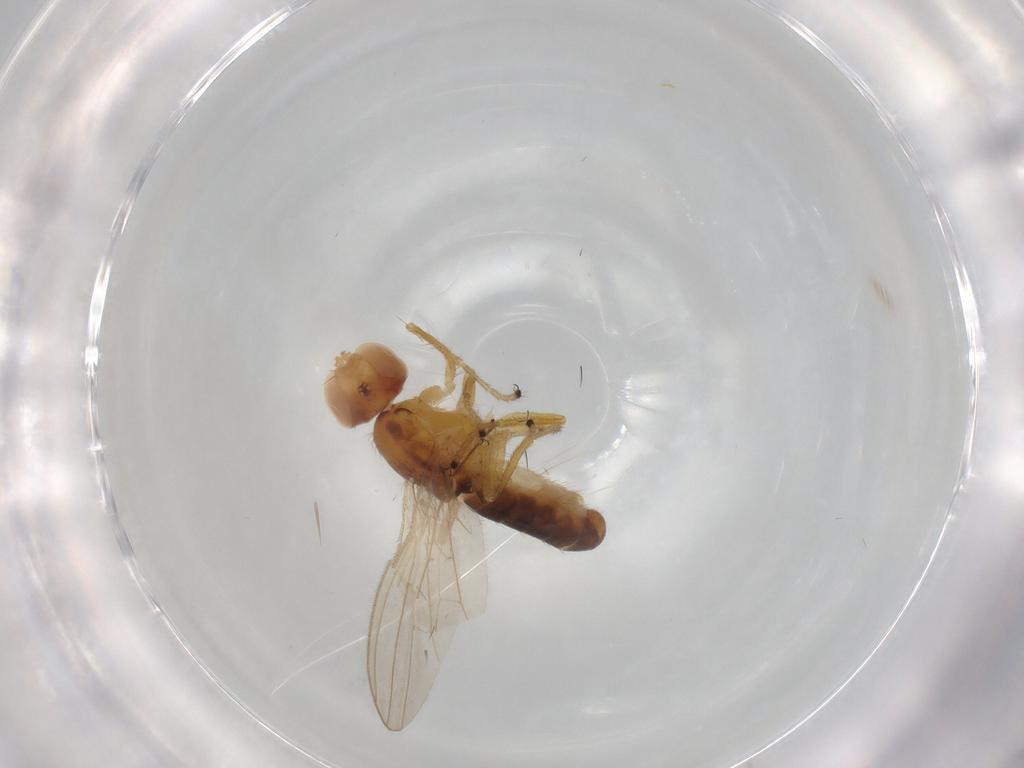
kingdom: Animalia
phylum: Arthropoda
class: Insecta
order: Diptera
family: Anthomyzidae
